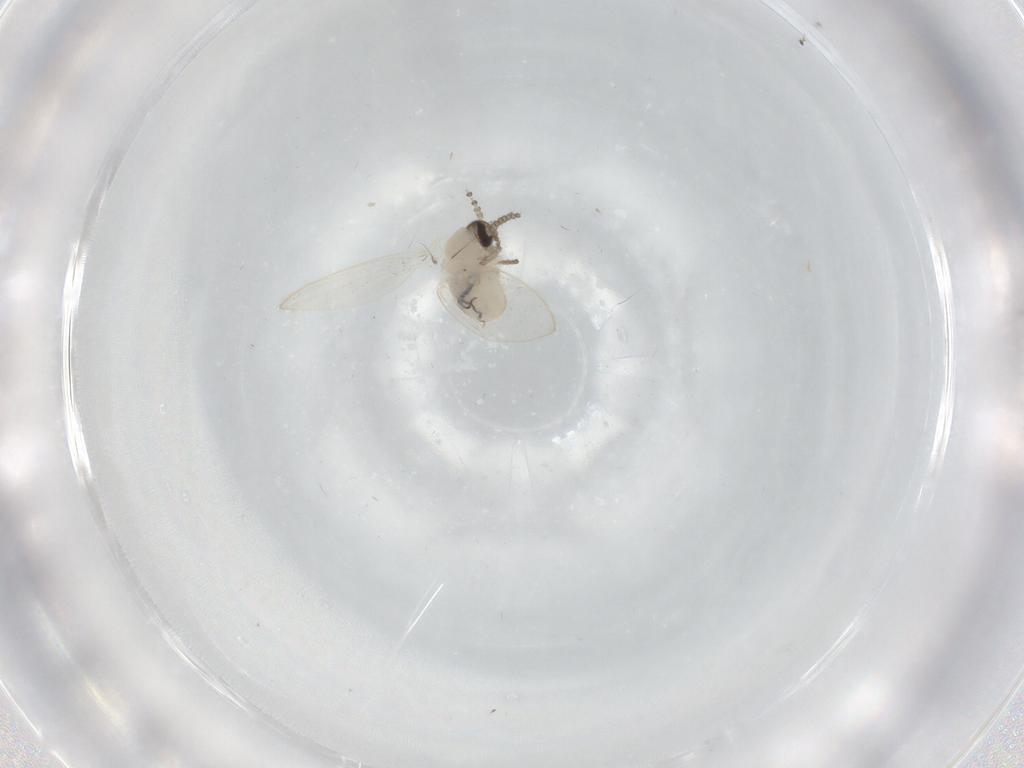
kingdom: Animalia
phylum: Arthropoda
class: Insecta
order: Diptera
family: Psychodidae
